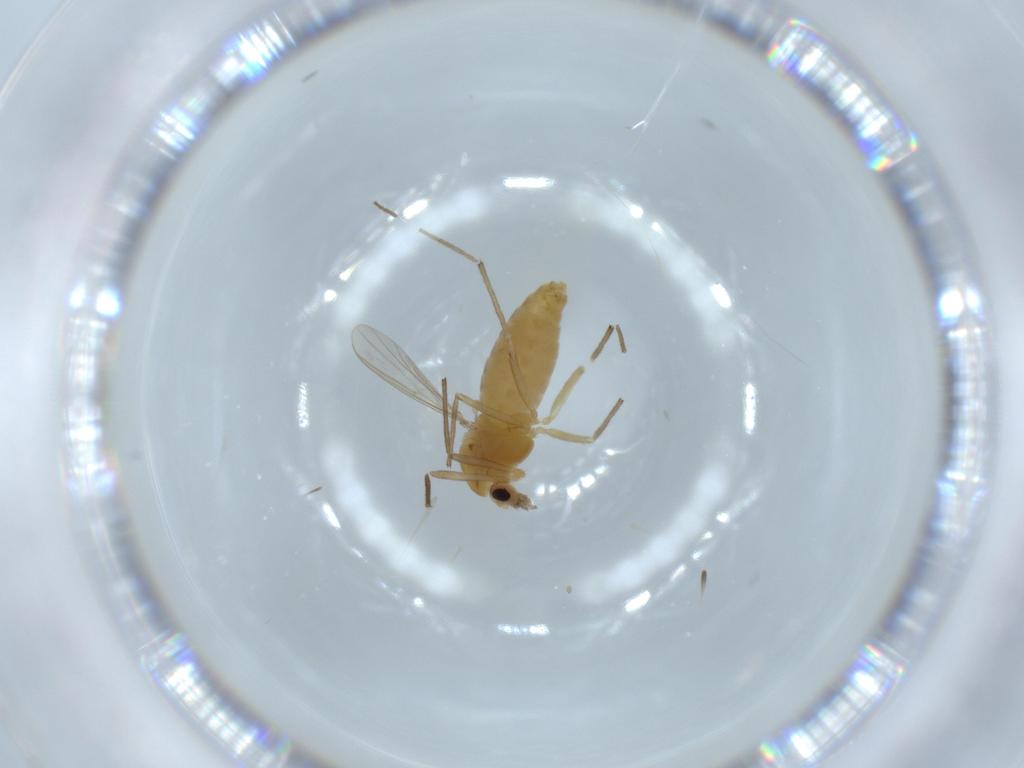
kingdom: Animalia
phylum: Arthropoda
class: Insecta
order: Diptera
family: Chironomidae
